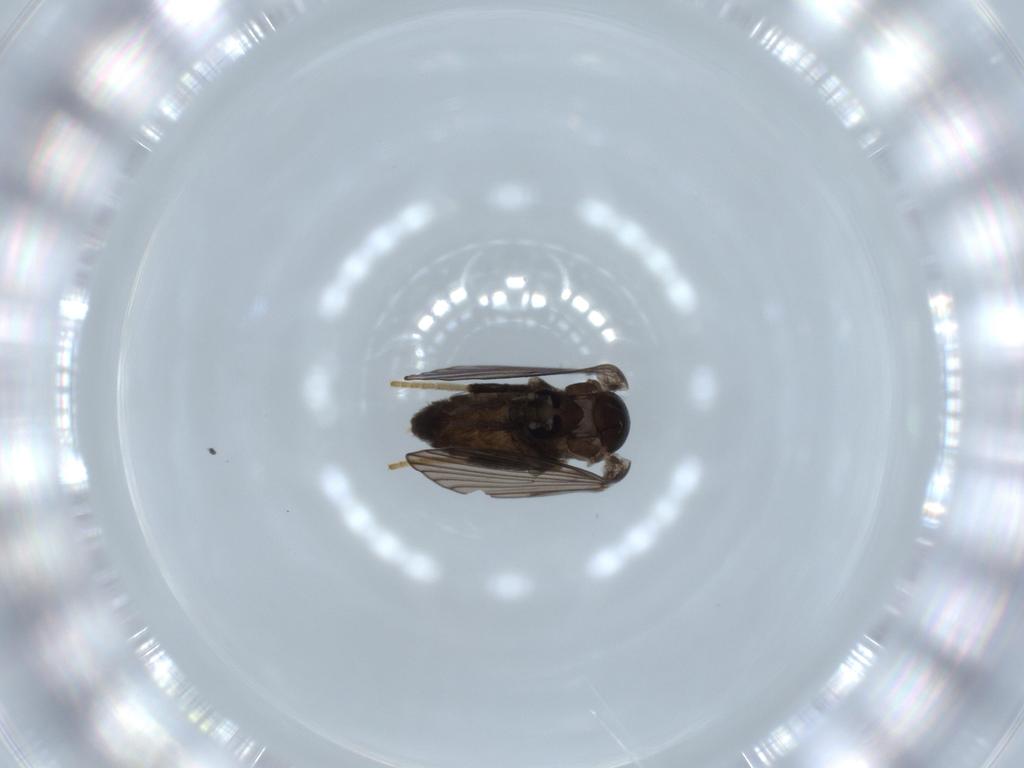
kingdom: Animalia
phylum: Arthropoda
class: Insecta
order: Diptera
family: Psychodidae
